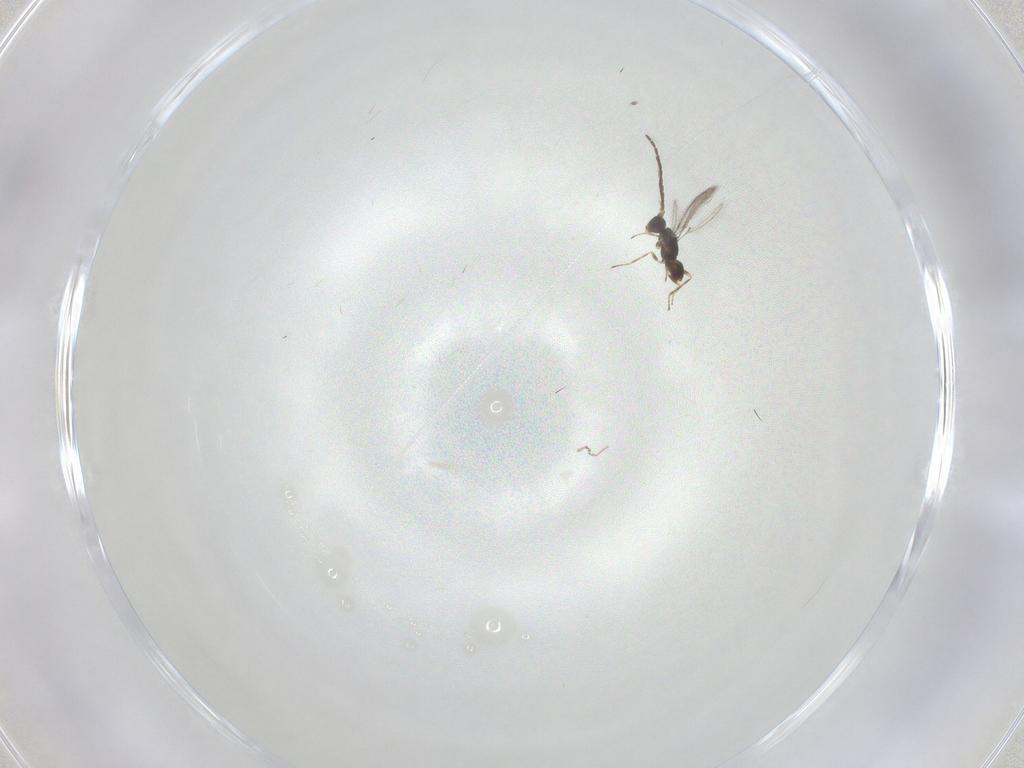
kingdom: Animalia
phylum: Arthropoda
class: Insecta
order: Hymenoptera
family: Mymaridae
